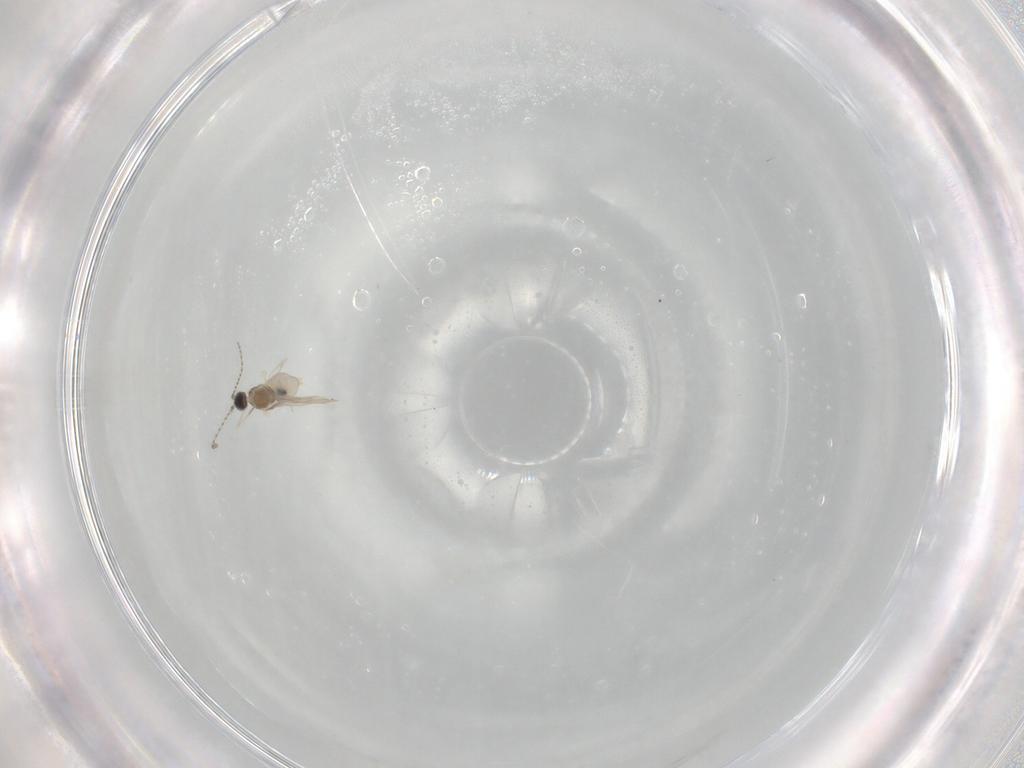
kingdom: Animalia
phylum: Arthropoda
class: Insecta
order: Diptera
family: Cecidomyiidae
